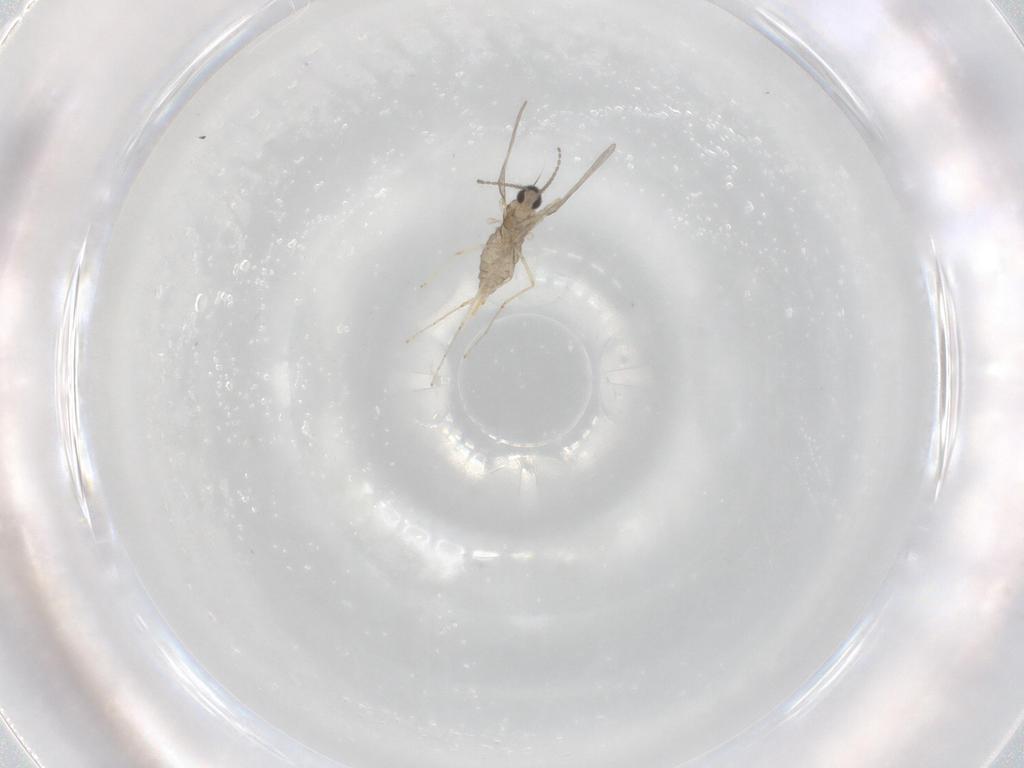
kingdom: Animalia
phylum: Arthropoda
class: Insecta
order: Diptera
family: Cecidomyiidae
